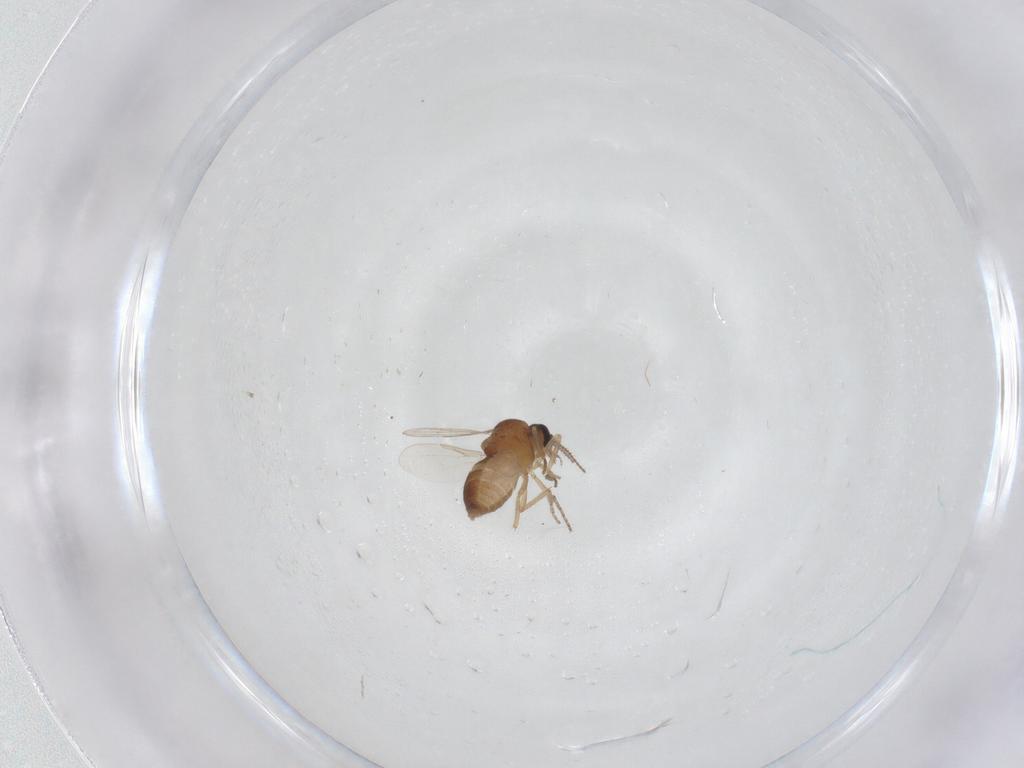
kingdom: Animalia
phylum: Arthropoda
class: Insecta
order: Diptera
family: Ceratopogonidae
